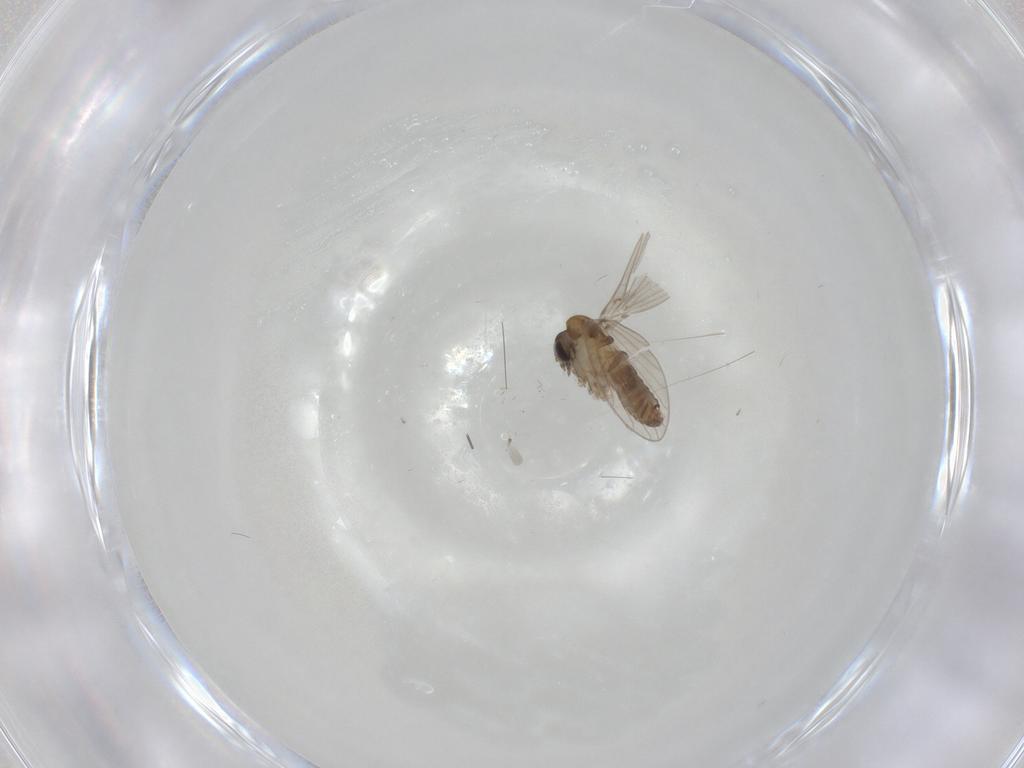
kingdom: Animalia
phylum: Arthropoda
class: Insecta
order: Diptera
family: Psychodidae
